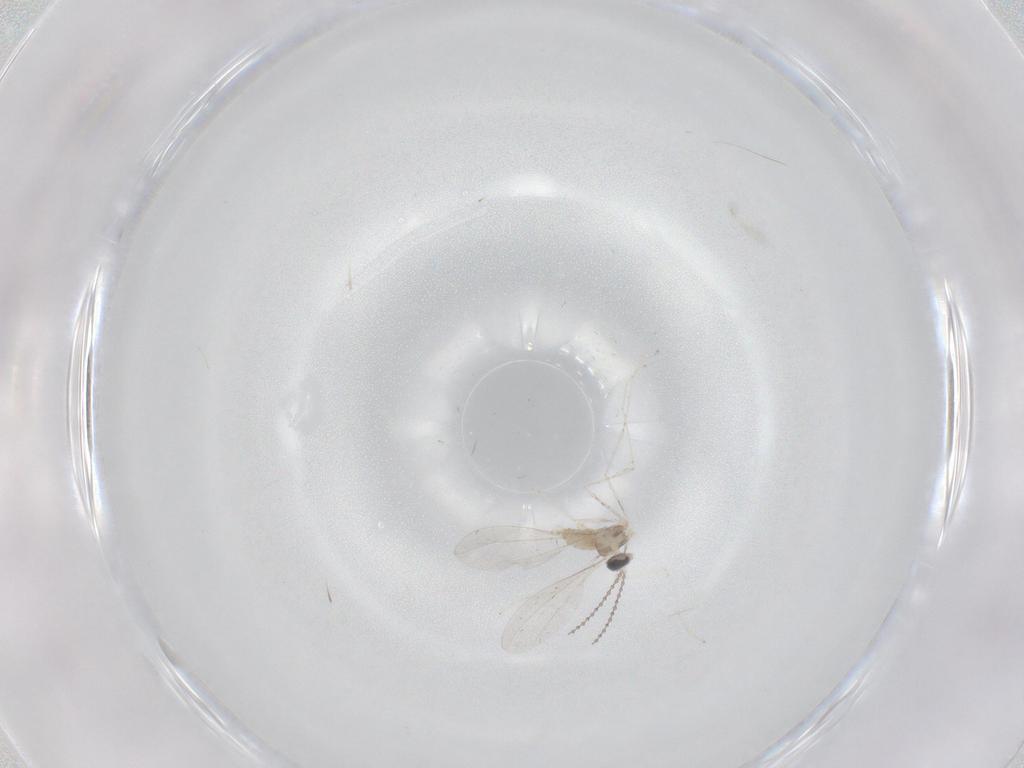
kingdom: Animalia
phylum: Arthropoda
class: Insecta
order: Diptera
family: Cecidomyiidae
